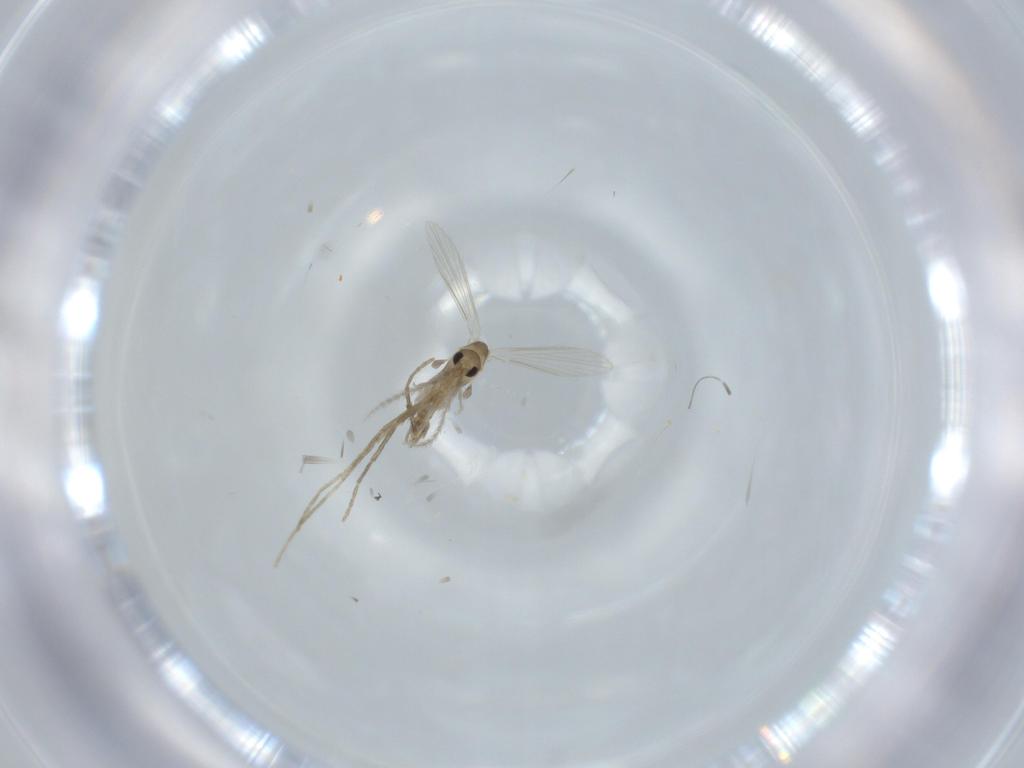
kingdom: Animalia
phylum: Arthropoda
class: Insecta
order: Diptera
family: Psychodidae
